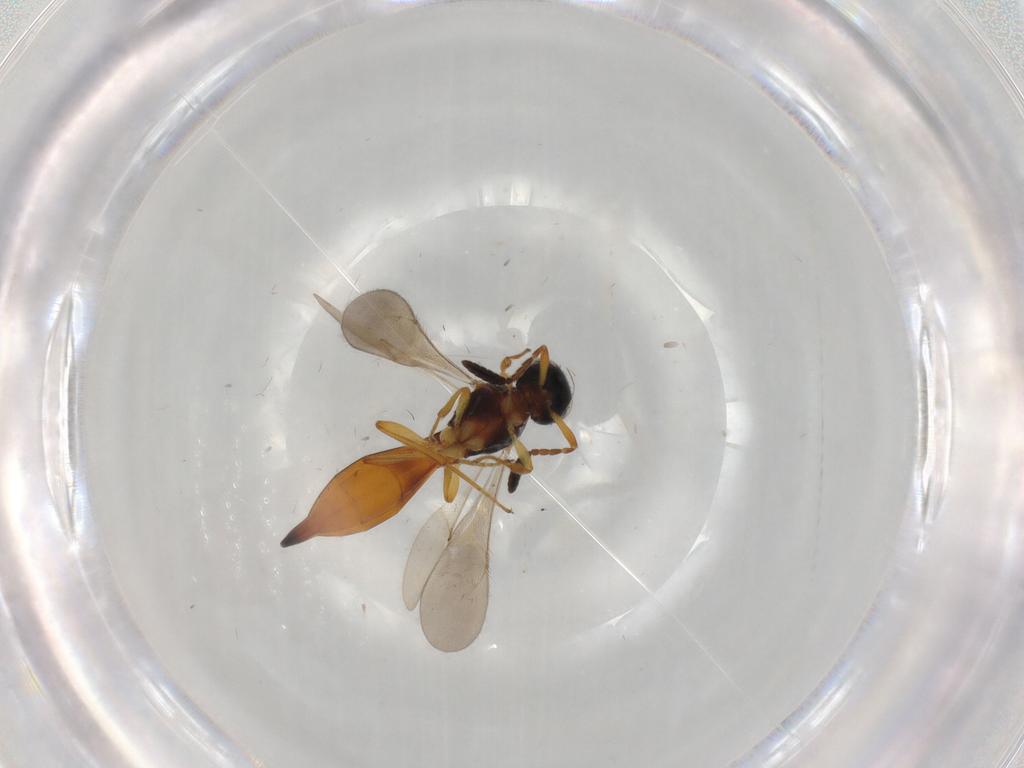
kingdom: Animalia
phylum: Arthropoda
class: Insecta
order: Hymenoptera
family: Scelionidae
